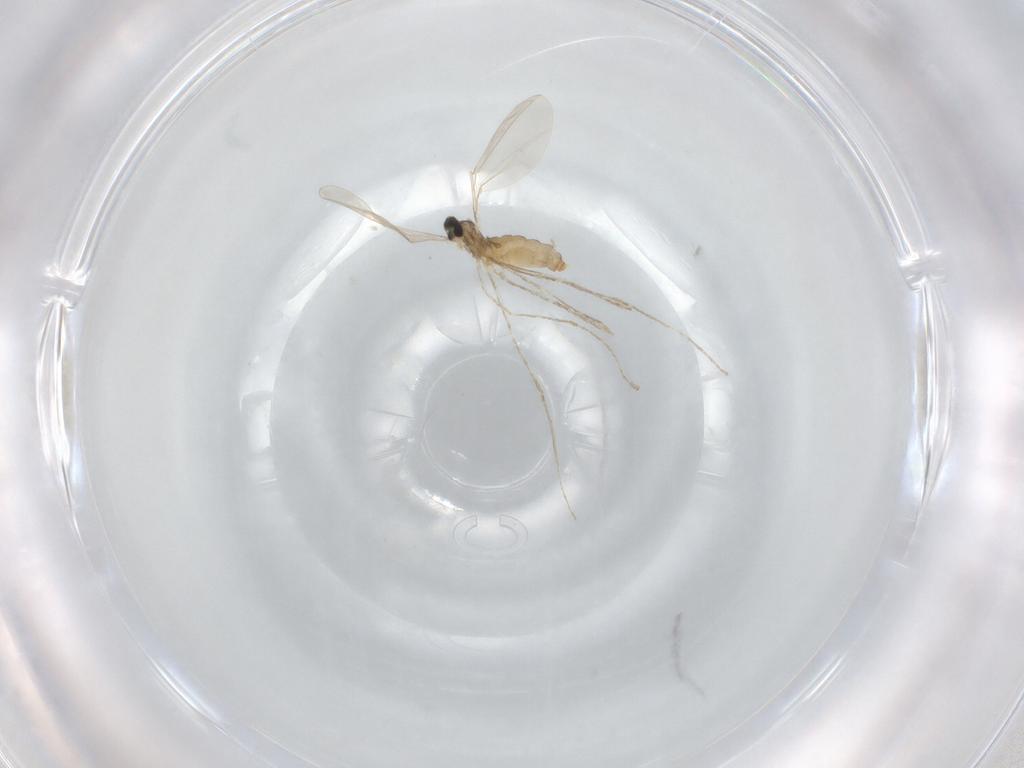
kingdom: Animalia
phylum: Arthropoda
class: Insecta
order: Diptera
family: Cecidomyiidae
